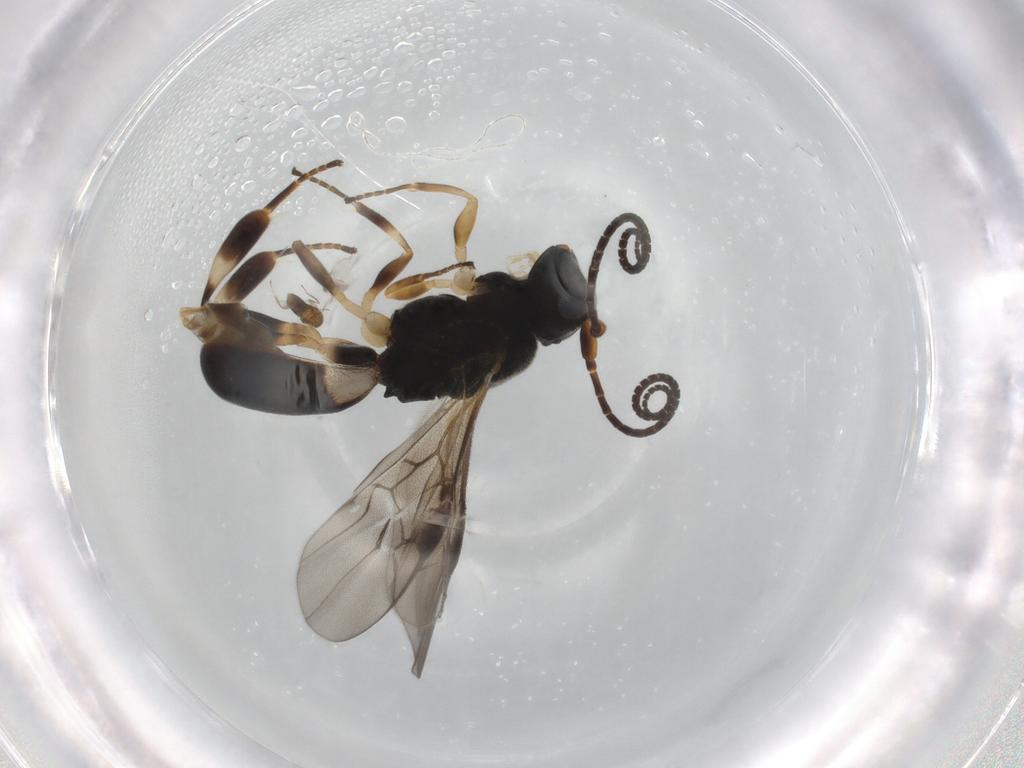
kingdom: Animalia
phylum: Arthropoda
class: Insecta
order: Hymenoptera
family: Braconidae
